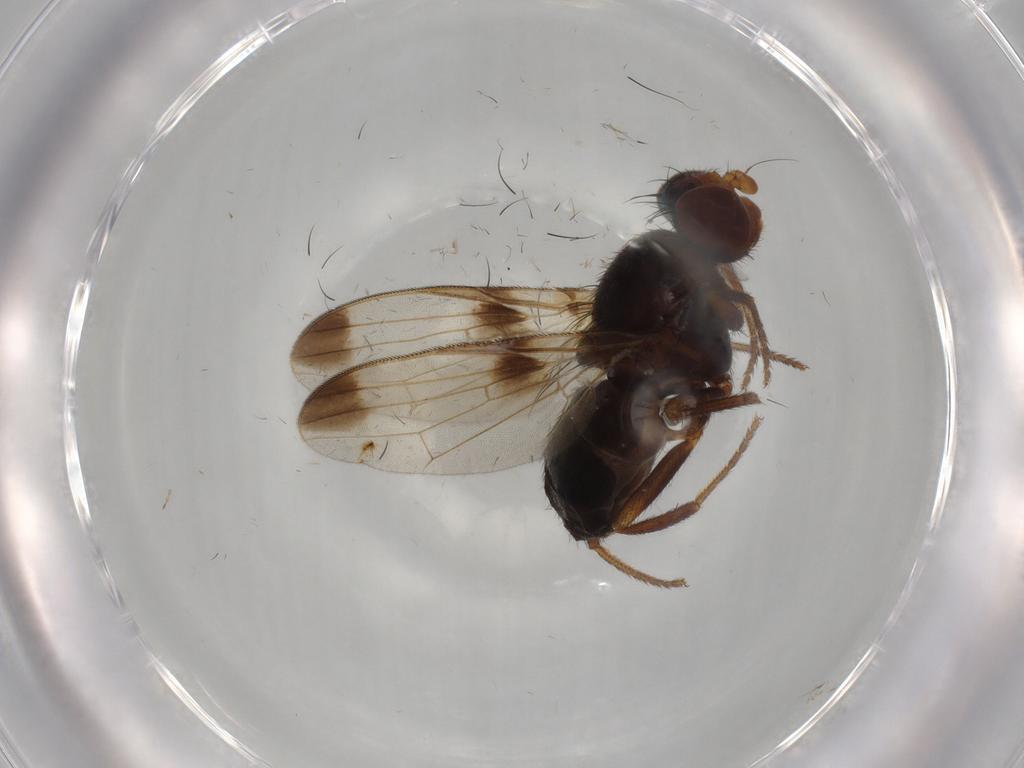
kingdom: Animalia
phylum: Arthropoda
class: Insecta
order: Diptera
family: Ulidiidae
